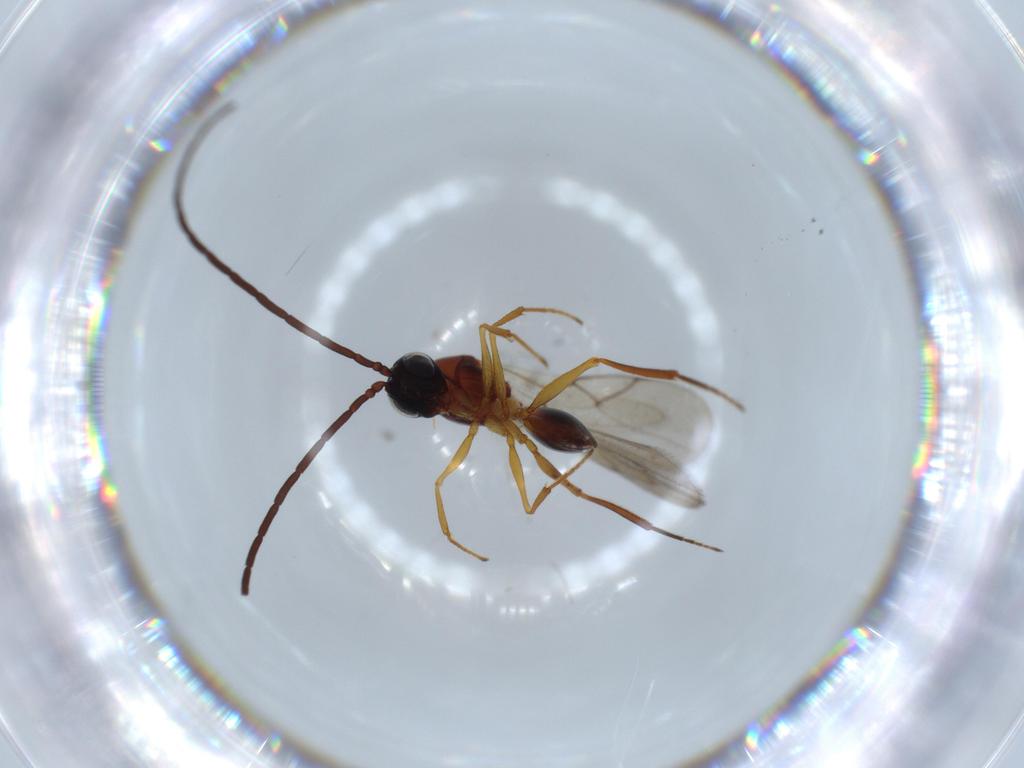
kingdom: Animalia
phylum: Arthropoda
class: Insecta
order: Hymenoptera
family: Figitidae
